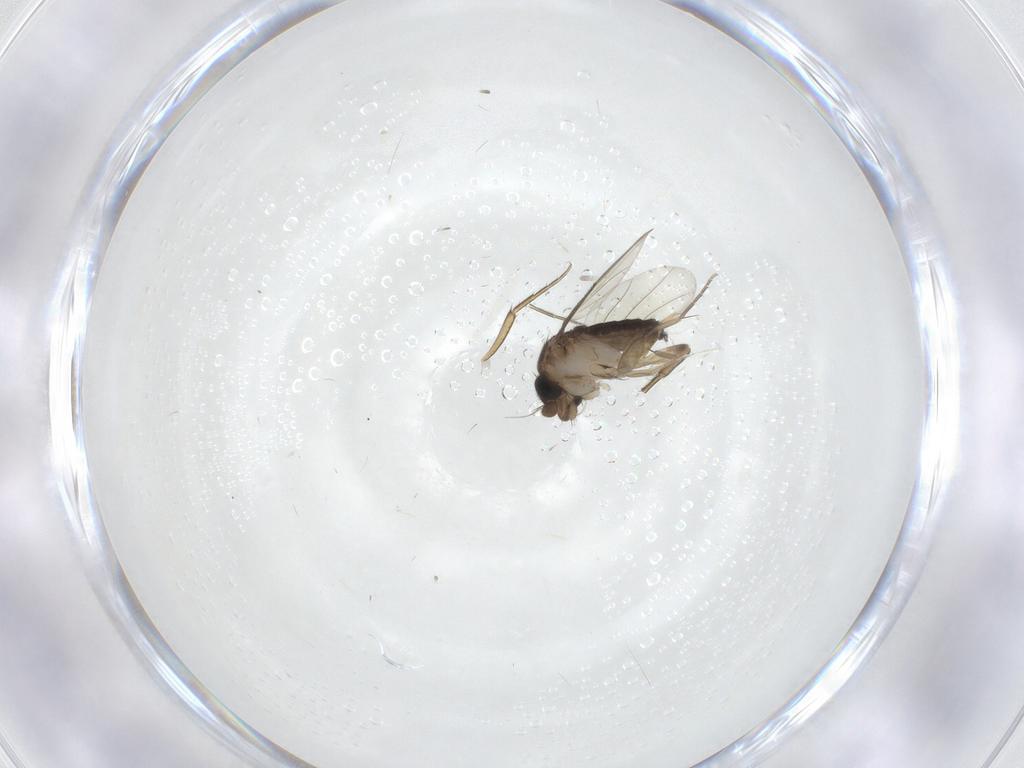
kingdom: Animalia
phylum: Arthropoda
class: Insecta
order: Diptera
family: Phoridae
